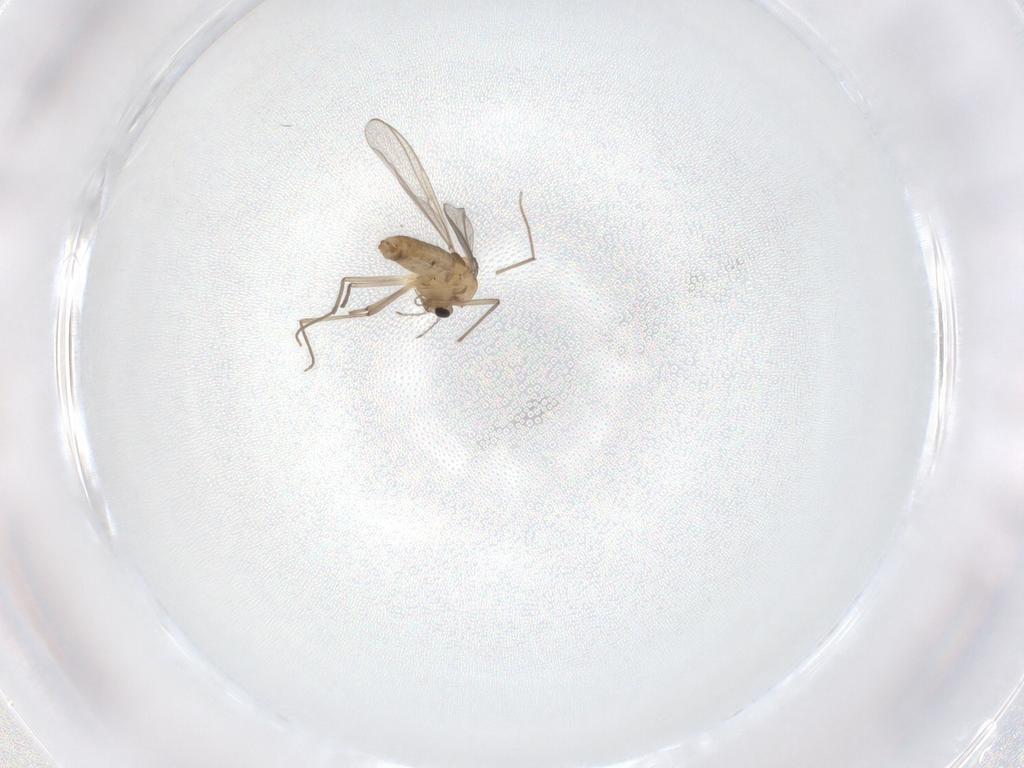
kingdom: Animalia
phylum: Arthropoda
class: Insecta
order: Diptera
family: Chironomidae
